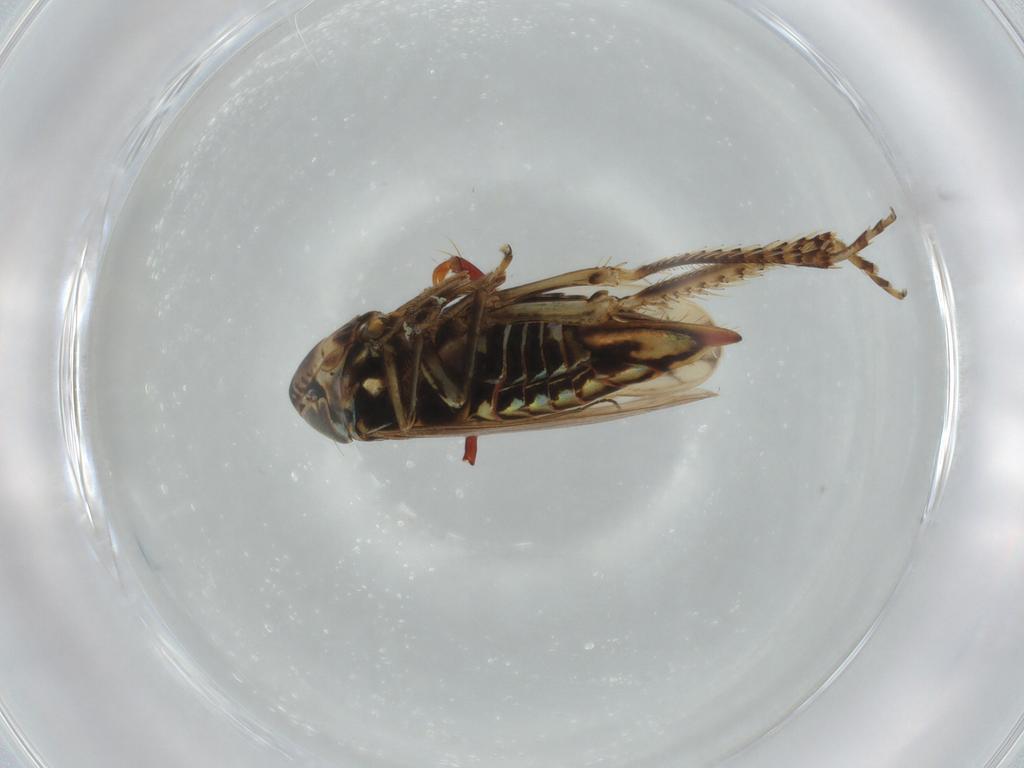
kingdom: Animalia
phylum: Arthropoda
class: Insecta
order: Hemiptera
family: Cicadellidae
